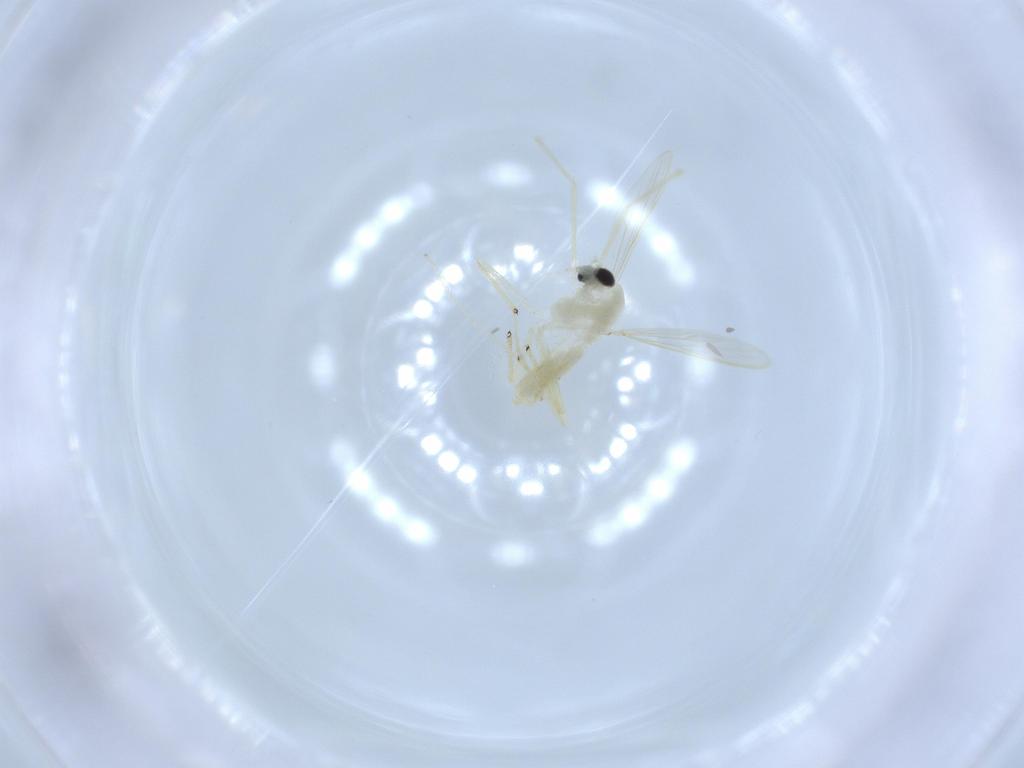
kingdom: Animalia
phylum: Arthropoda
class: Insecta
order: Diptera
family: Chironomidae
